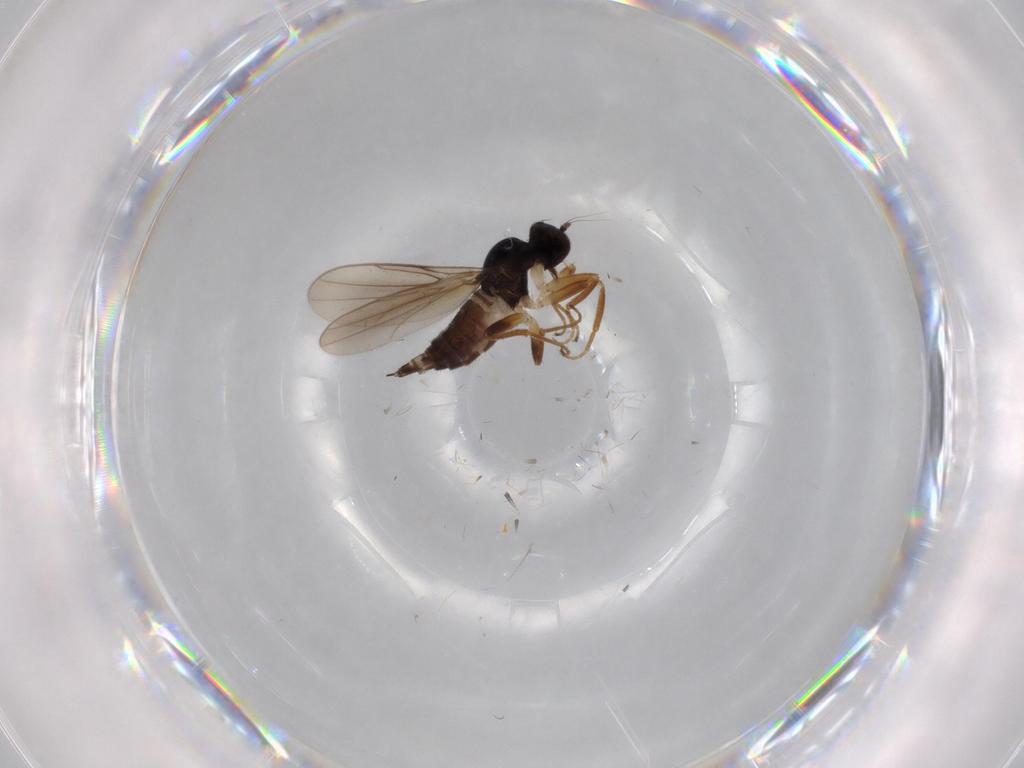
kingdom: Animalia
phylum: Arthropoda
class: Insecta
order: Diptera
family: Hybotidae
